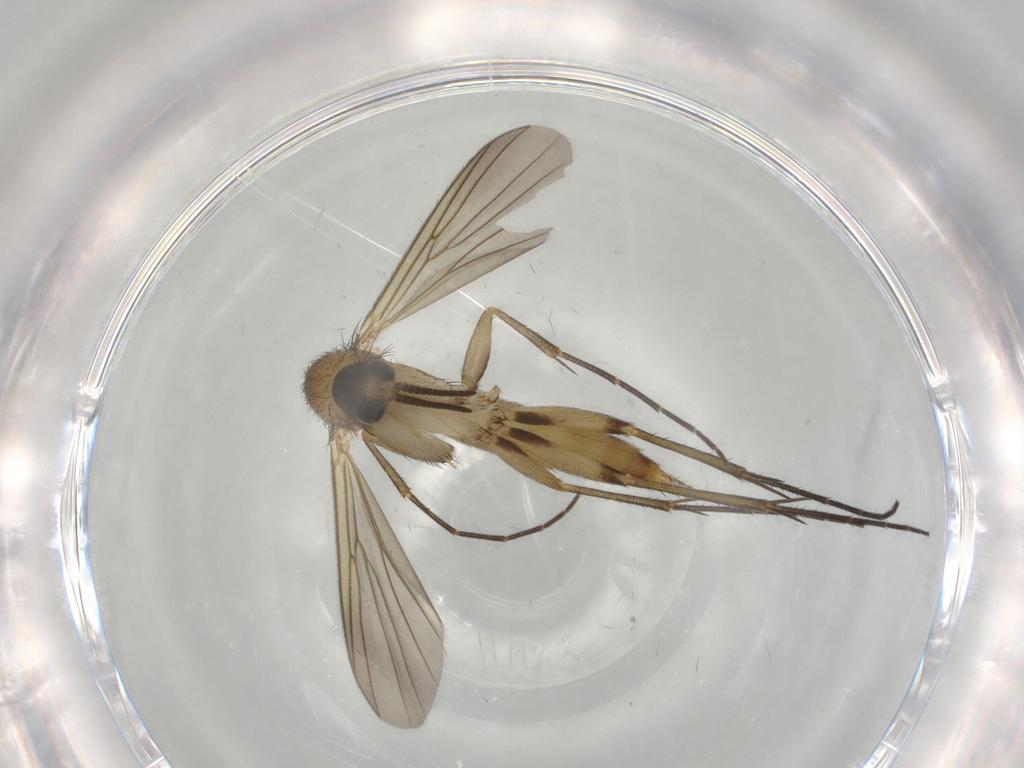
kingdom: Animalia
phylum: Arthropoda
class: Insecta
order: Diptera
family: Sciaridae
